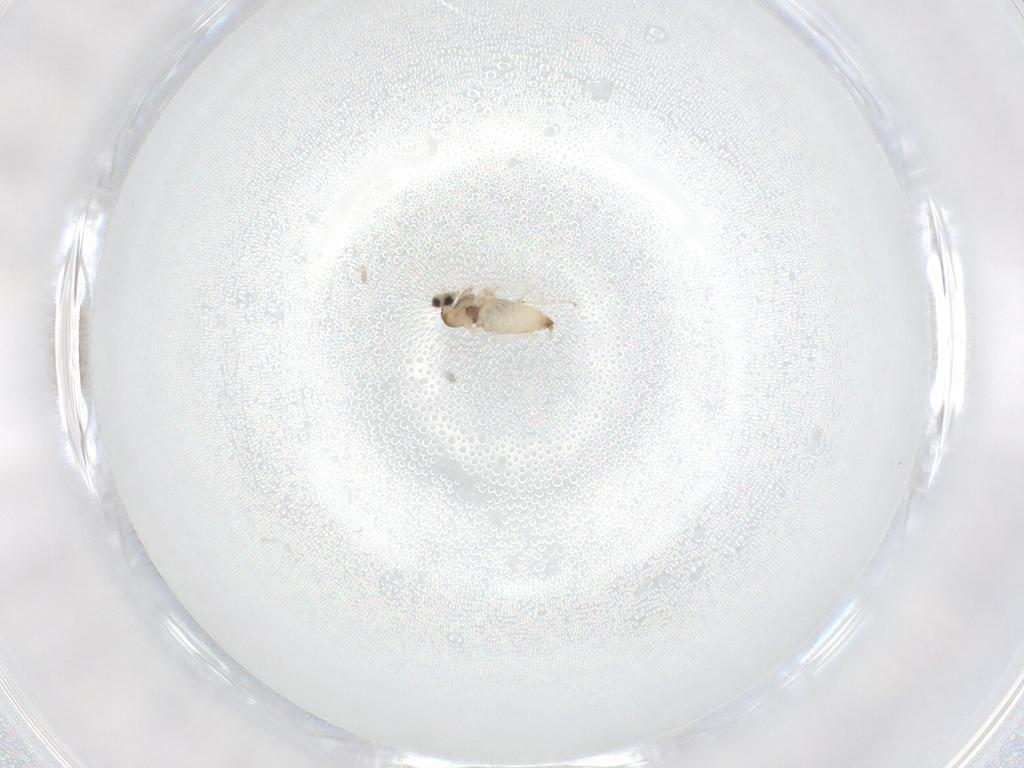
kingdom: Animalia
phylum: Arthropoda
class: Insecta
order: Diptera
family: Cecidomyiidae
